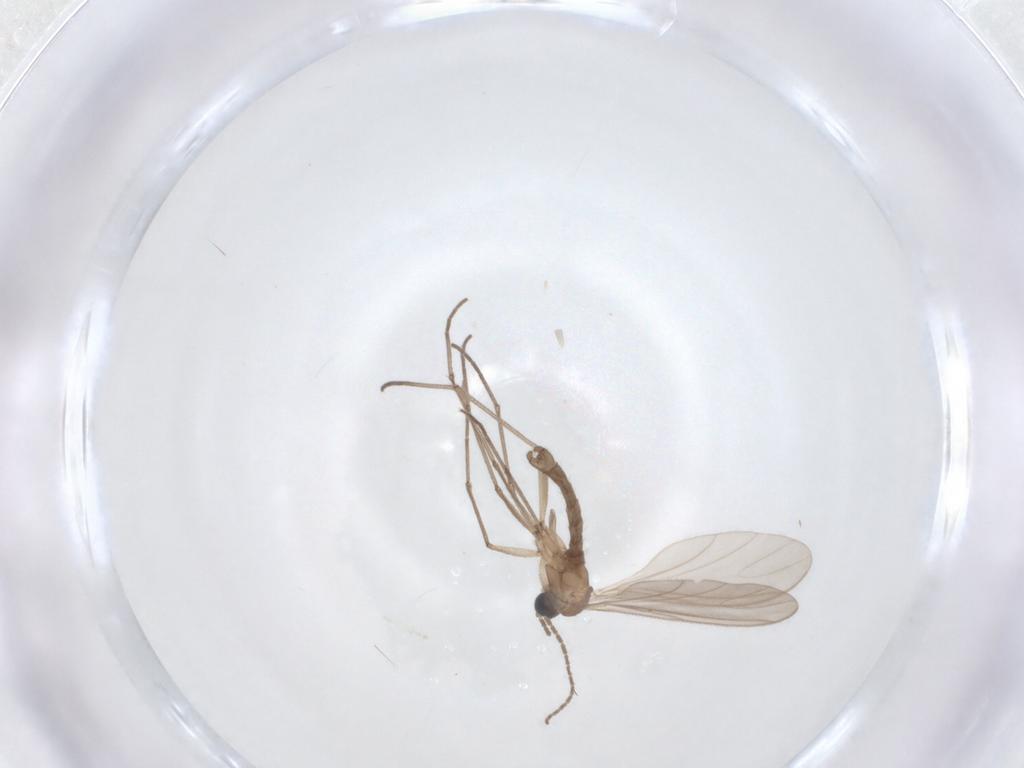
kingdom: Animalia
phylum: Arthropoda
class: Insecta
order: Diptera
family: Sciaridae
